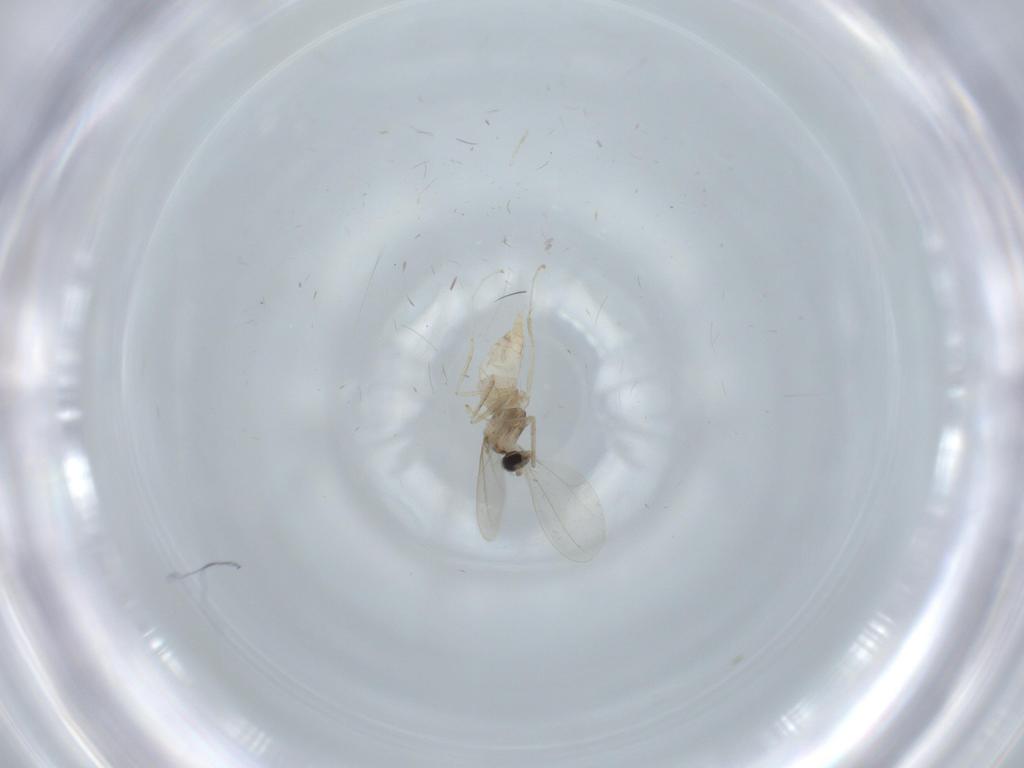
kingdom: Animalia
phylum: Arthropoda
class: Insecta
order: Diptera
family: Cecidomyiidae
